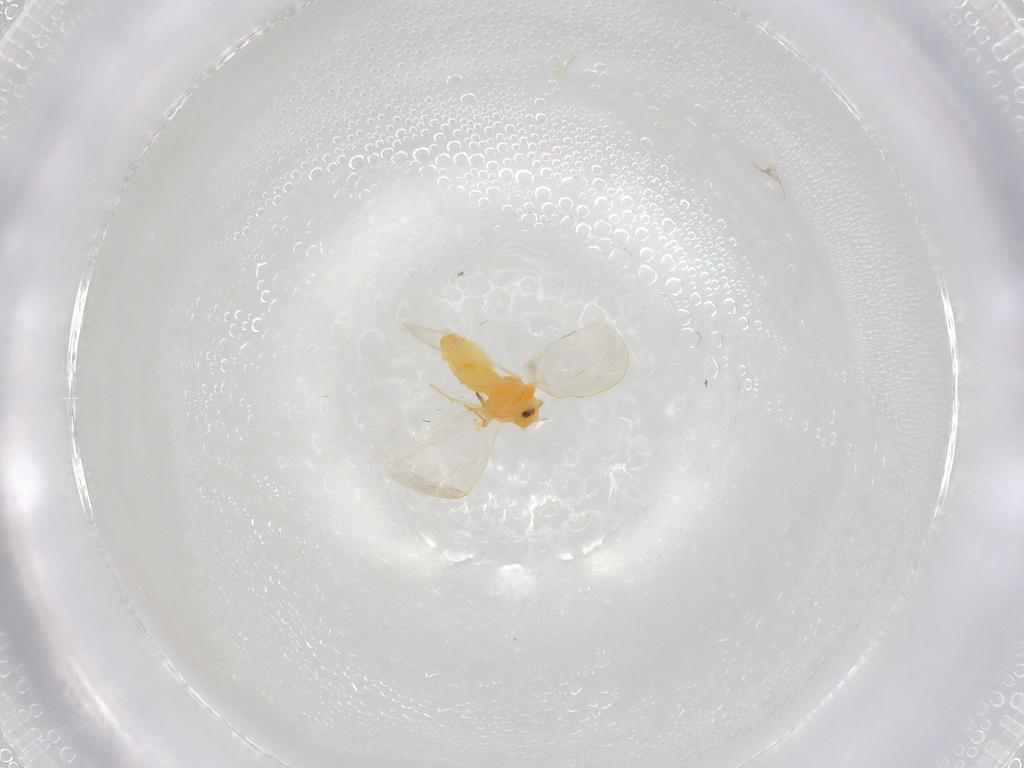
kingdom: Animalia
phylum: Arthropoda
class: Insecta
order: Hemiptera
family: Aleyrodidae
